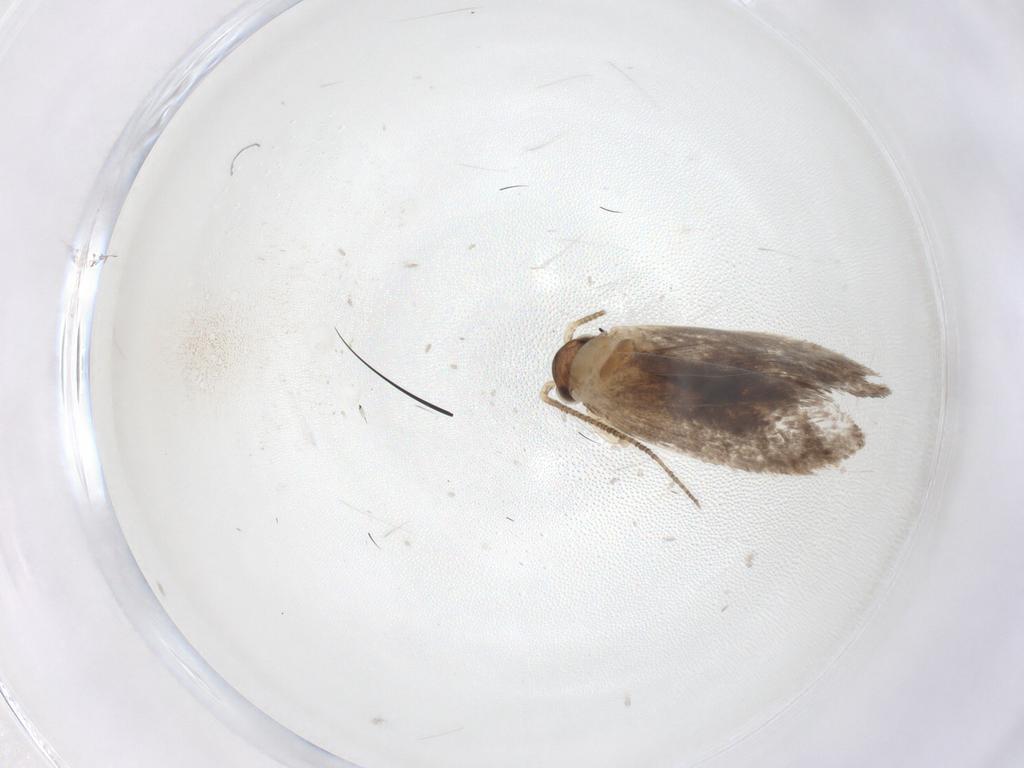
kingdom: Animalia
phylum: Arthropoda
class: Insecta
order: Lepidoptera
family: Dryadaulidae
